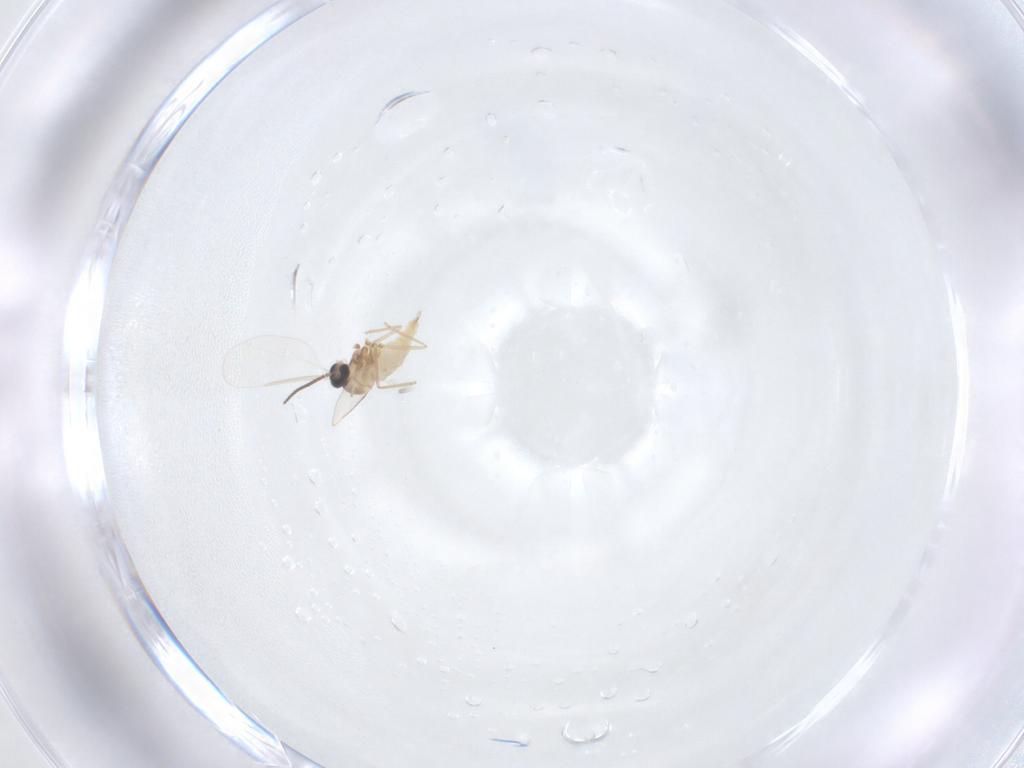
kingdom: Animalia
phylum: Arthropoda
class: Insecta
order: Diptera
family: Cecidomyiidae
